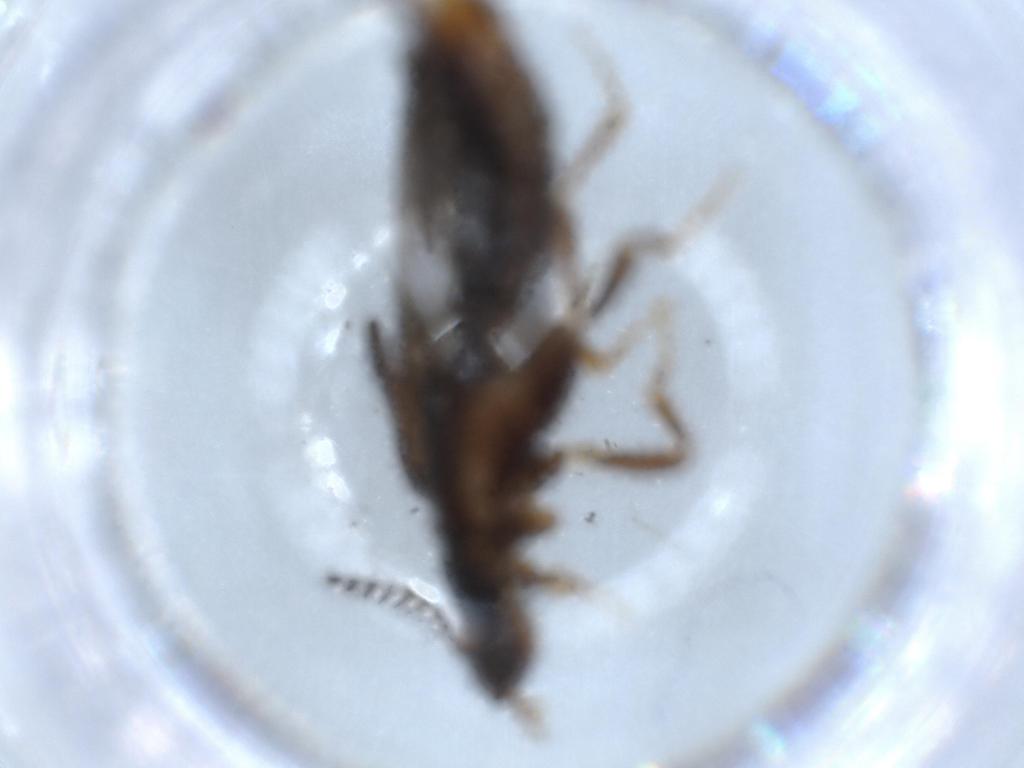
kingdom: Animalia
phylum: Arthropoda
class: Insecta
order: Coleoptera
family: Phengodidae
